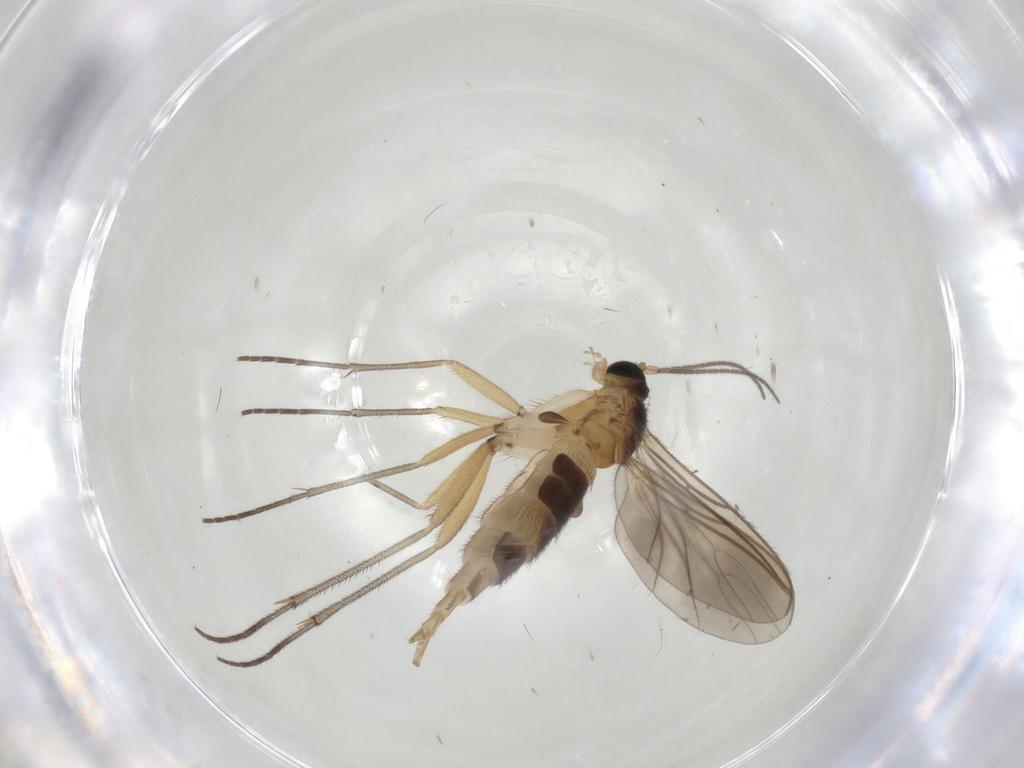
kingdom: Animalia
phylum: Arthropoda
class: Insecta
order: Diptera
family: Sciaridae
